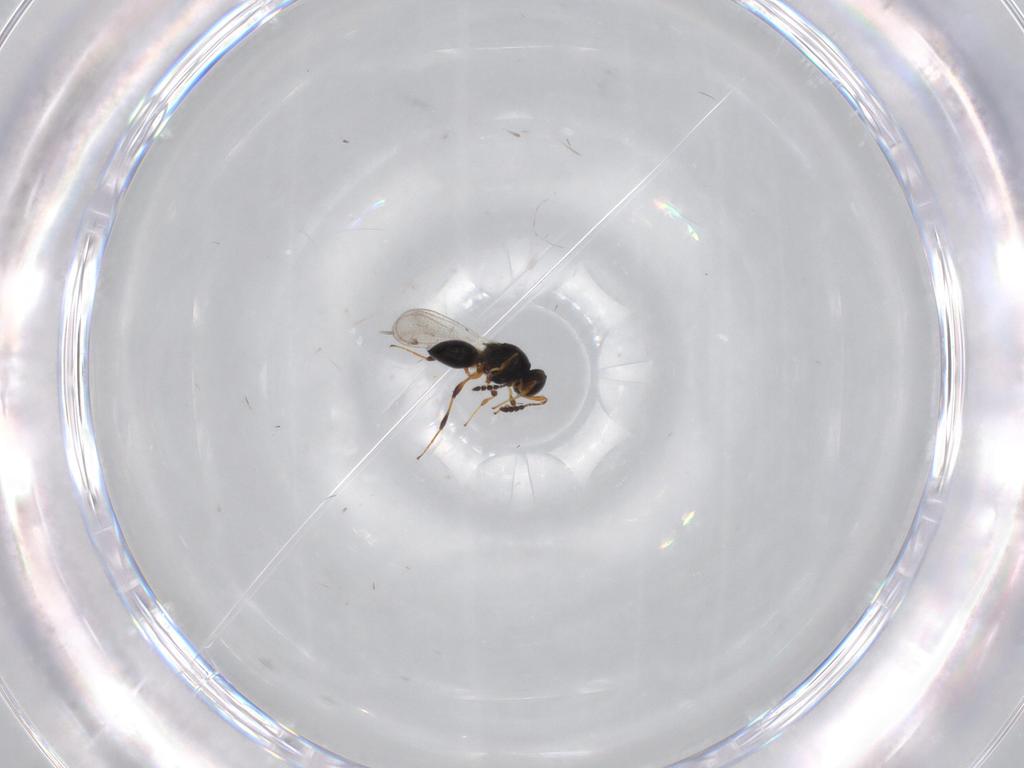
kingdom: Animalia
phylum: Arthropoda
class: Insecta
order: Hymenoptera
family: Platygastridae
